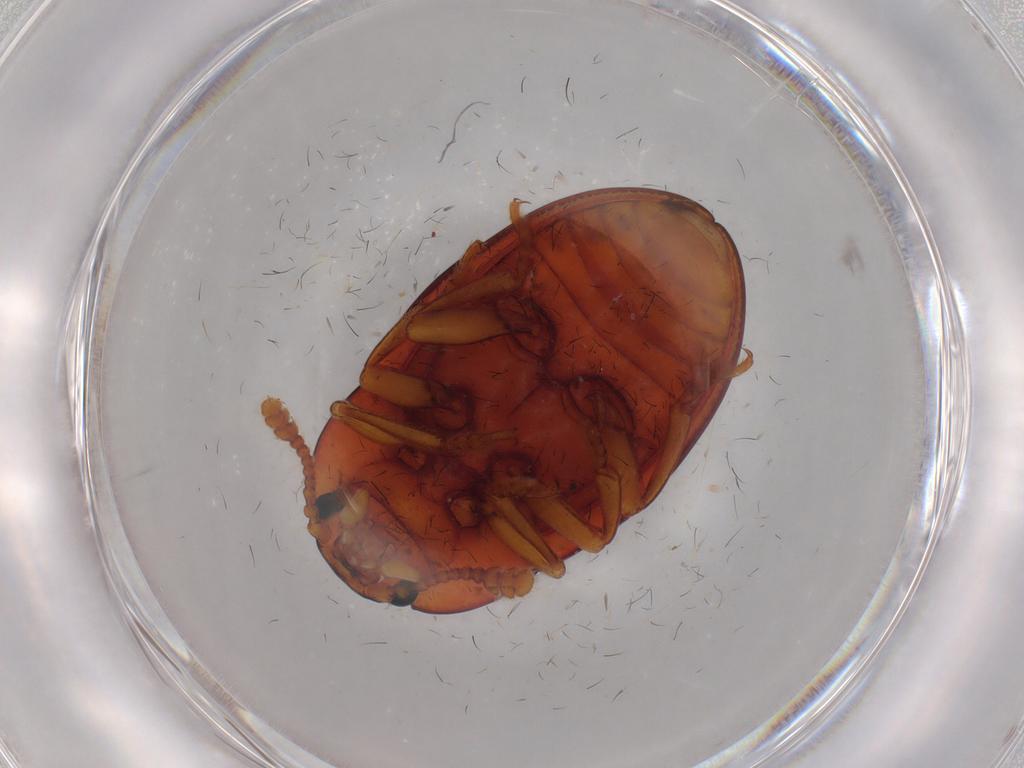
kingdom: Animalia
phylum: Arthropoda
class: Insecta
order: Coleoptera
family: Erotylidae
